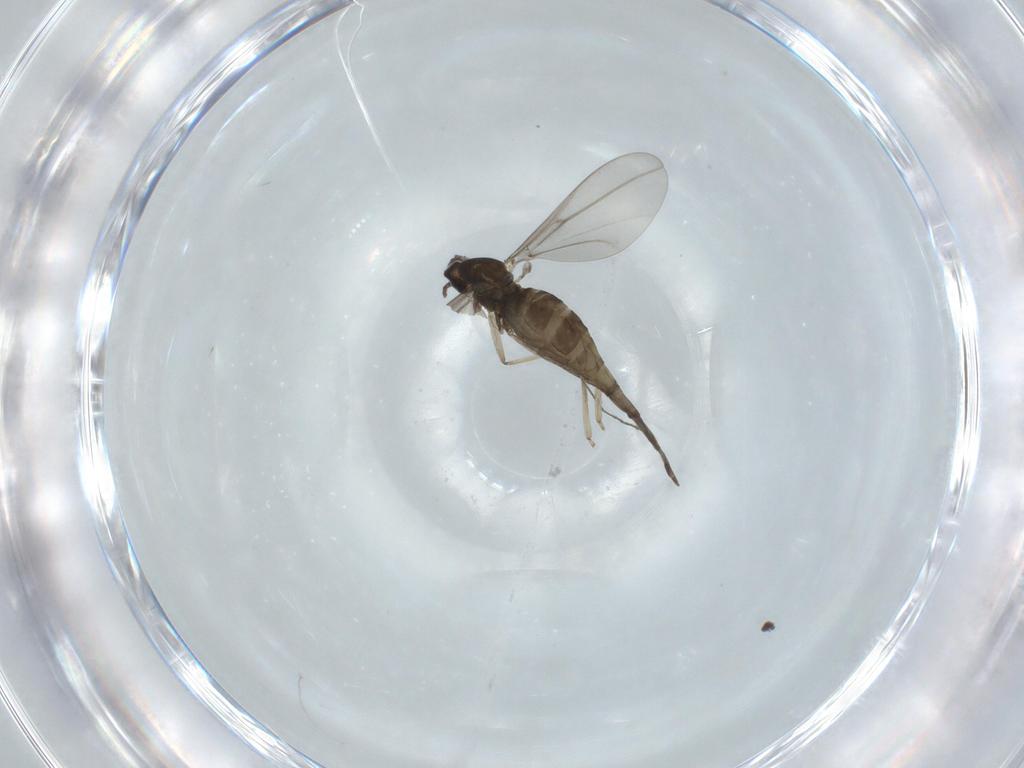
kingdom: Animalia
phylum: Arthropoda
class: Insecta
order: Diptera
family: Cecidomyiidae
